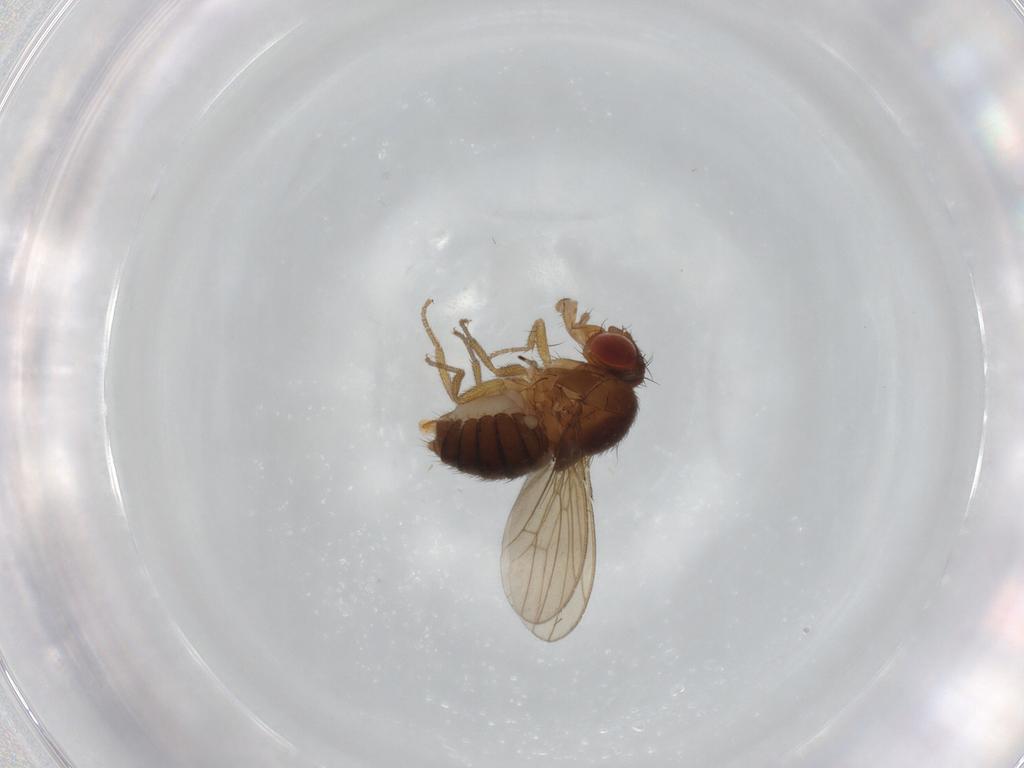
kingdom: Animalia
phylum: Arthropoda
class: Insecta
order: Diptera
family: Drosophilidae
